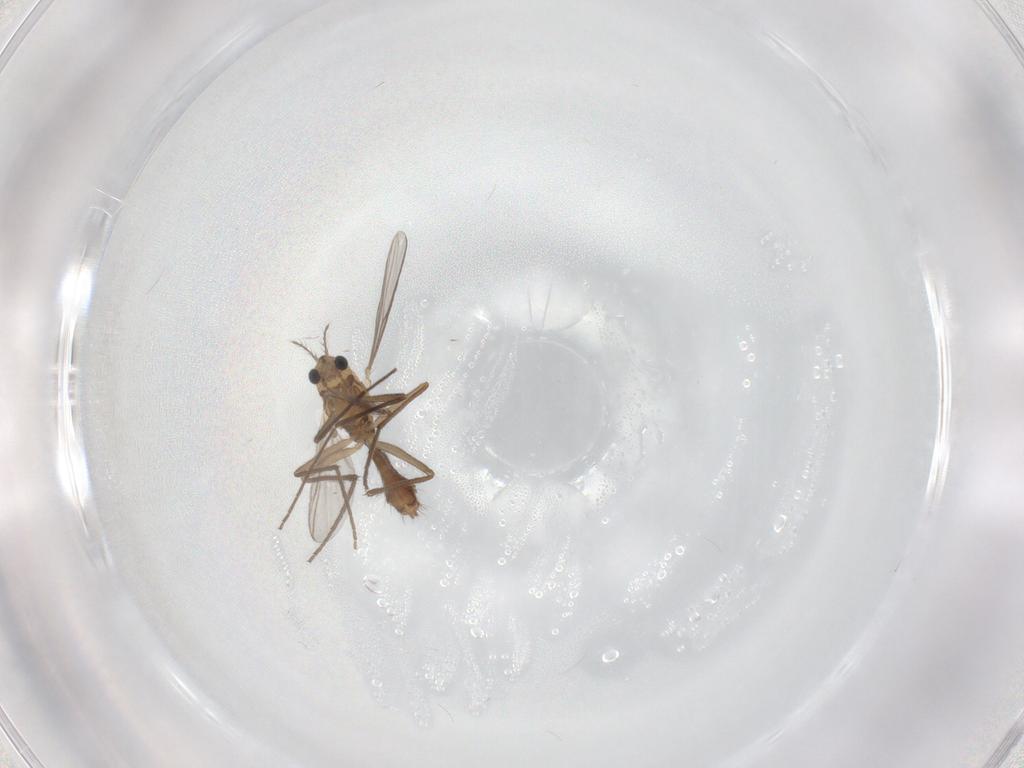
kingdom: Animalia
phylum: Arthropoda
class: Insecta
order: Diptera
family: Chironomidae
